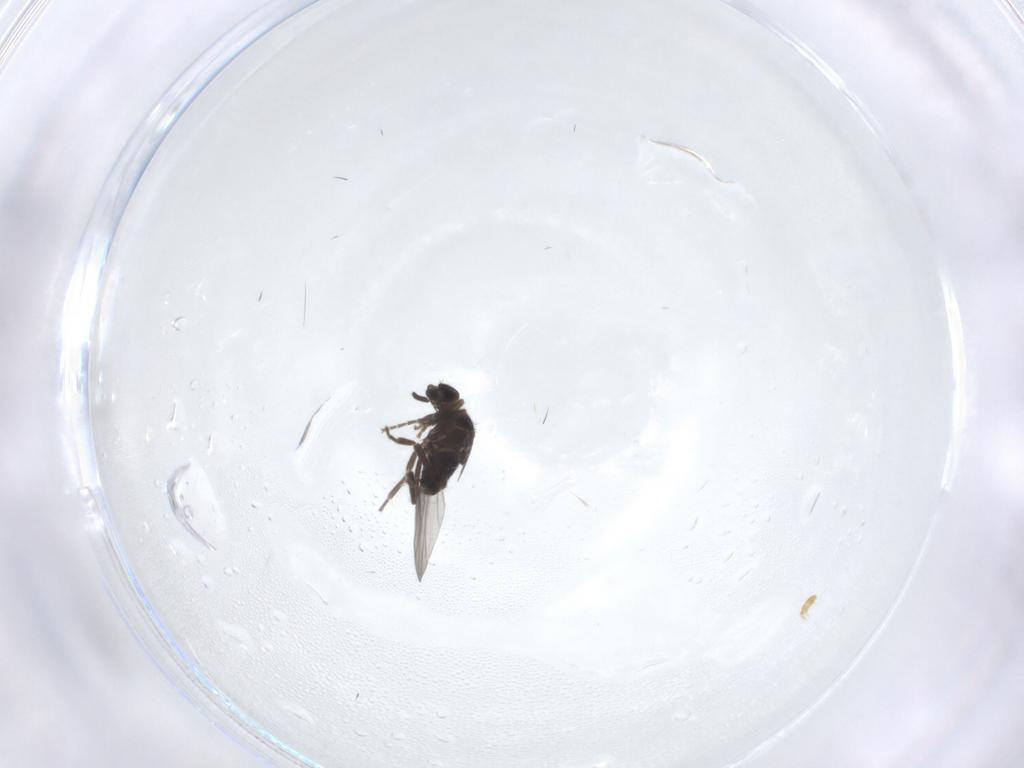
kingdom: Animalia
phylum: Arthropoda
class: Insecta
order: Diptera
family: Fannia
